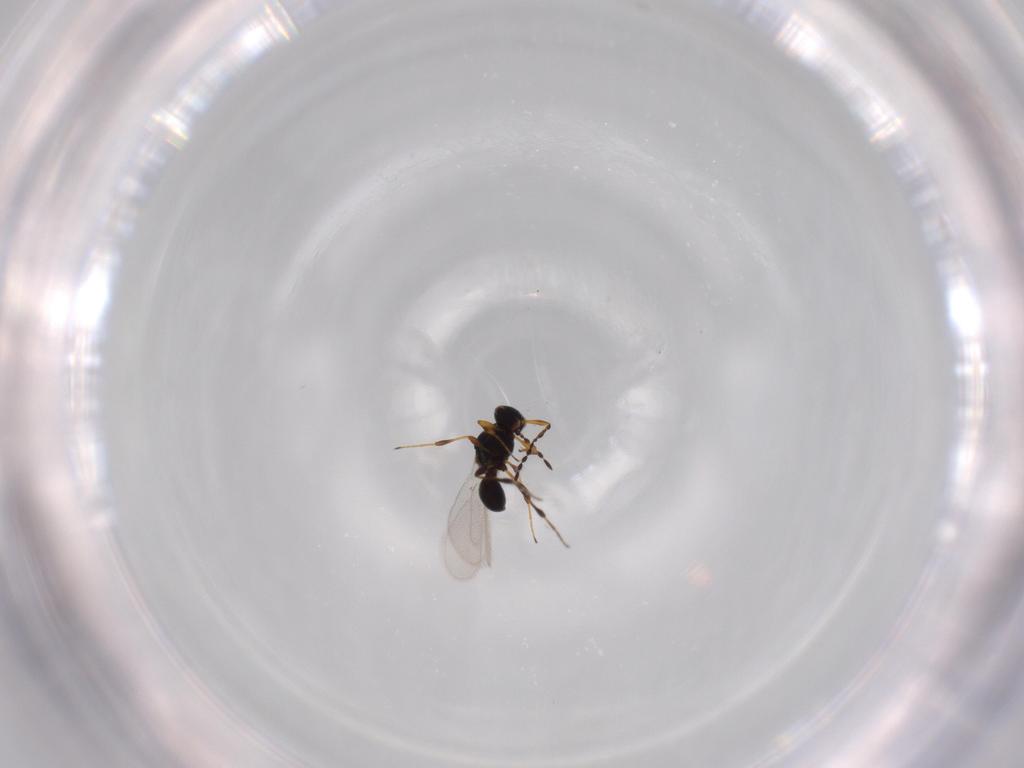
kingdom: Animalia
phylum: Arthropoda
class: Insecta
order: Hymenoptera
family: Platygastridae
